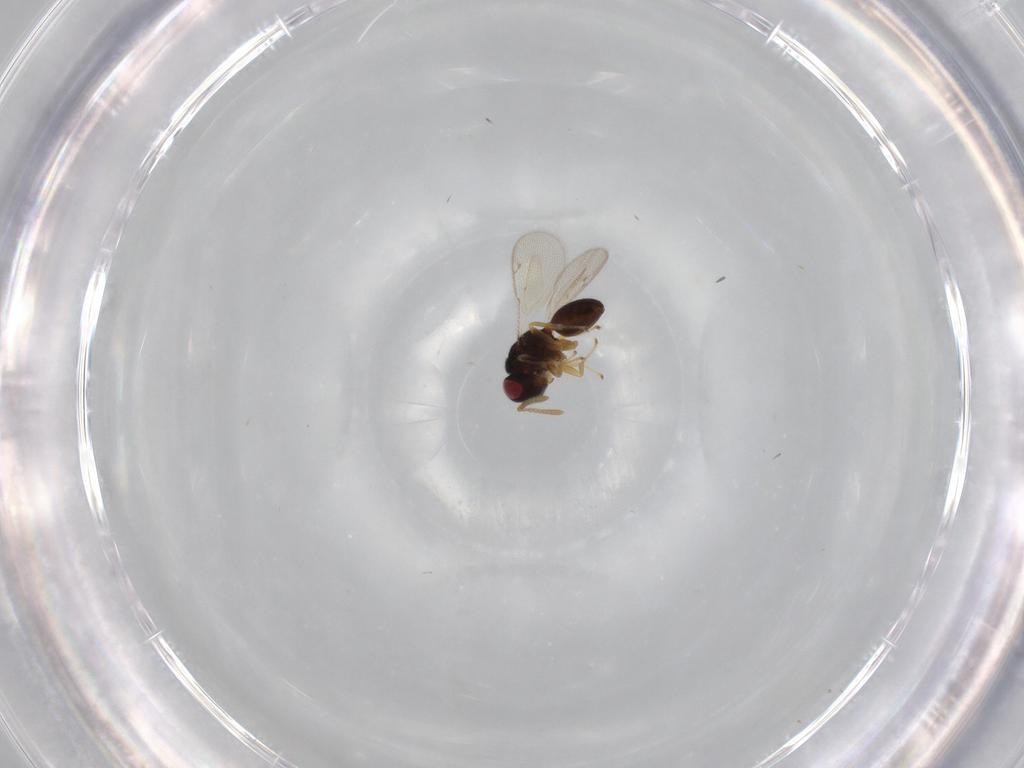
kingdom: Animalia
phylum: Arthropoda
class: Insecta
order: Hymenoptera
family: Eurytomidae
